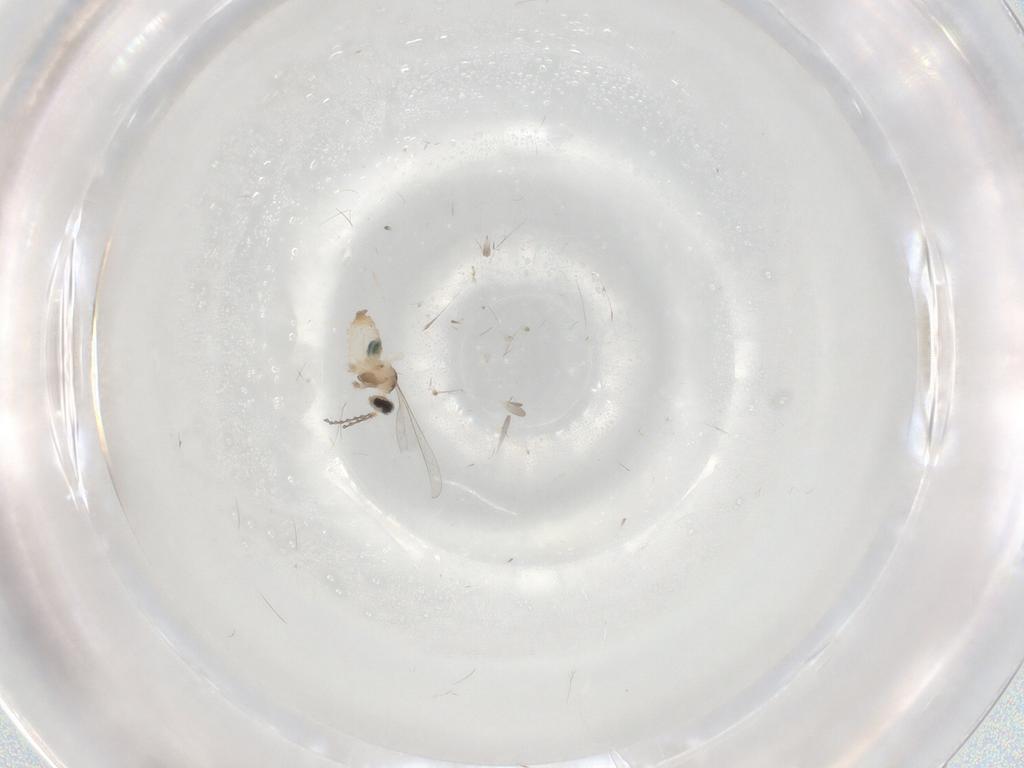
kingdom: Animalia
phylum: Arthropoda
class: Insecta
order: Diptera
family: Cecidomyiidae
